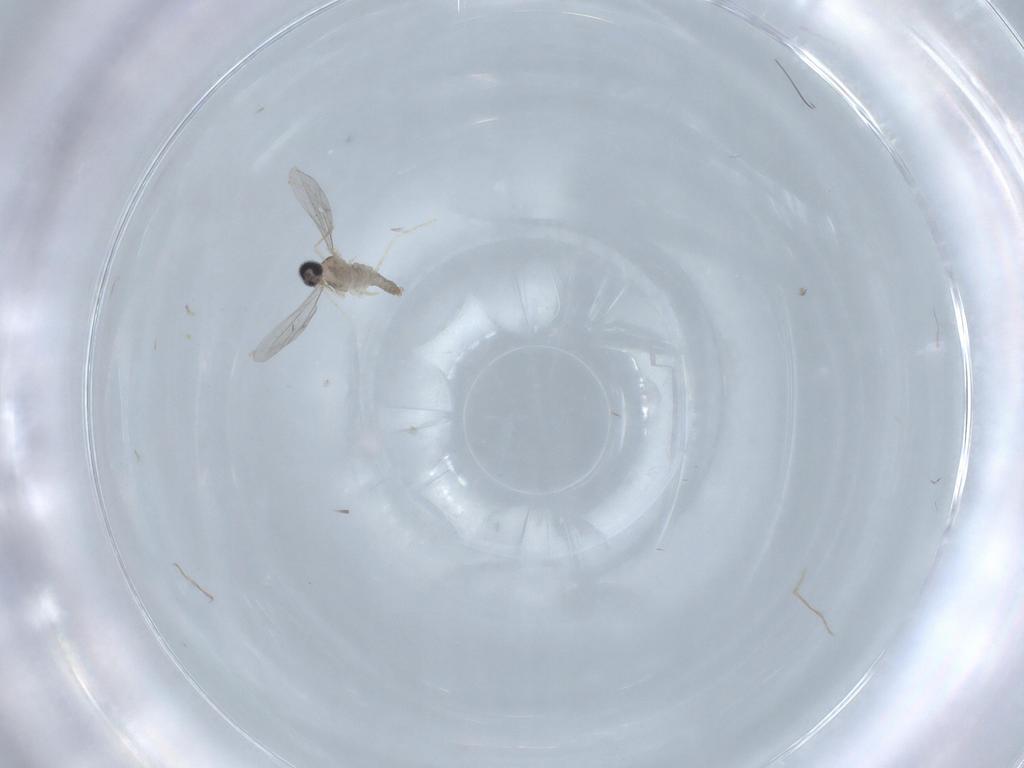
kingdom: Animalia
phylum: Arthropoda
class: Insecta
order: Diptera
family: Cecidomyiidae
